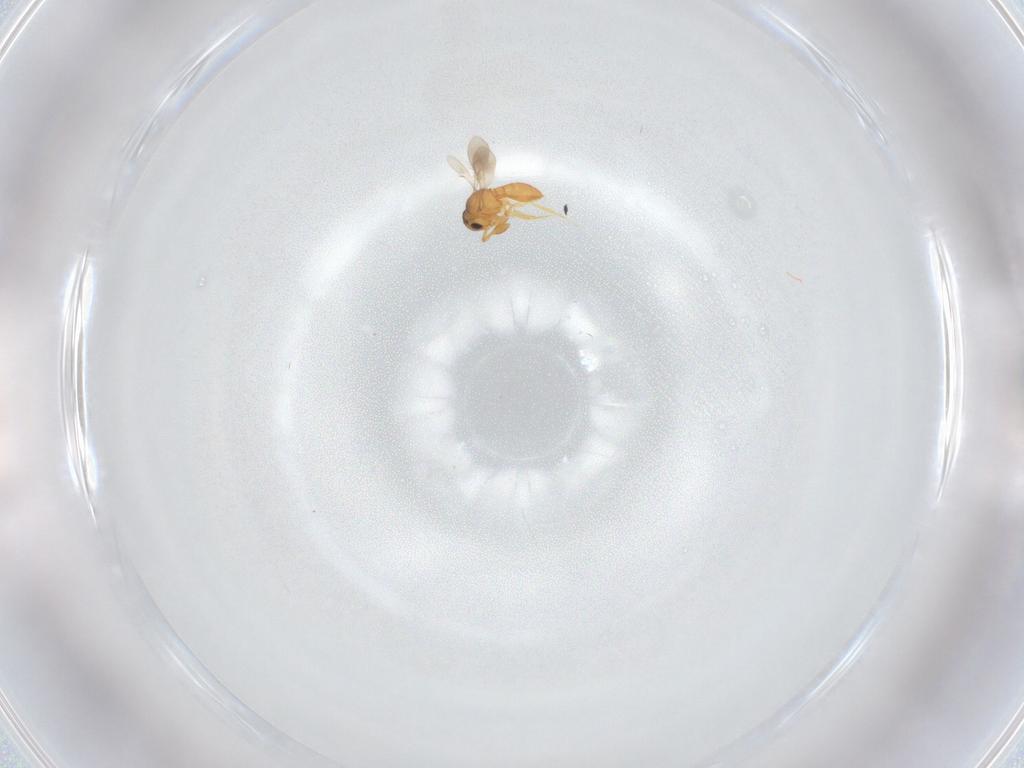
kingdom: Animalia
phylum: Arthropoda
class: Insecta
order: Hymenoptera
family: Scelionidae
